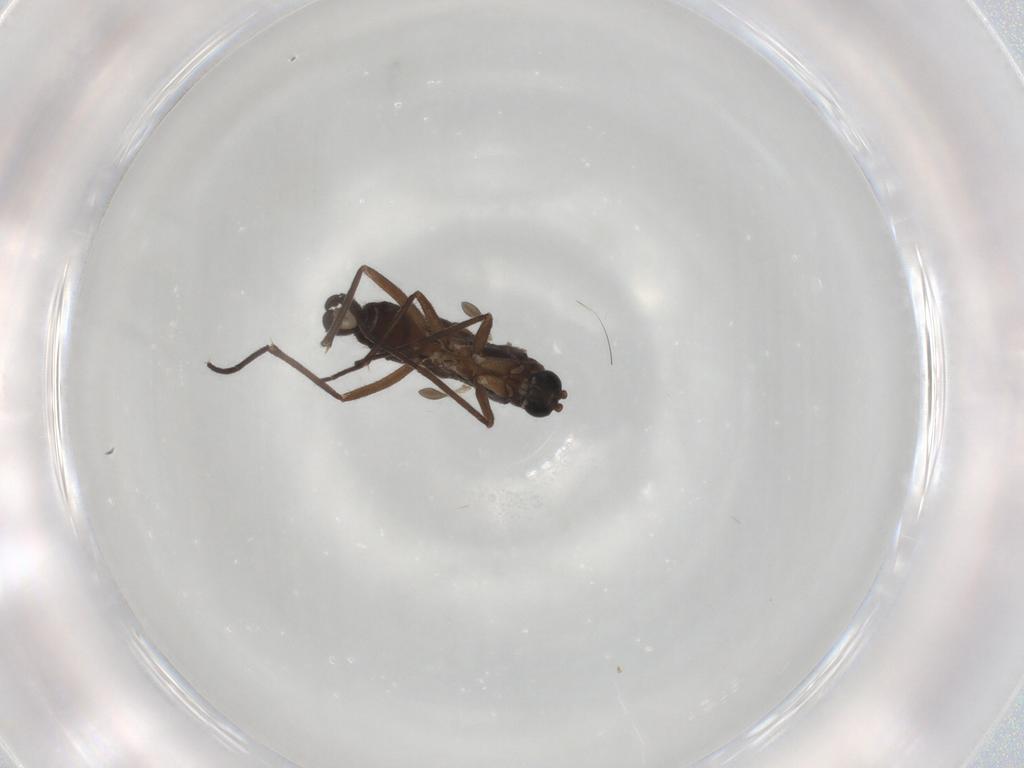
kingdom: Animalia
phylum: Arthropoda
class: Insecta
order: Diptera
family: Sciaridae
